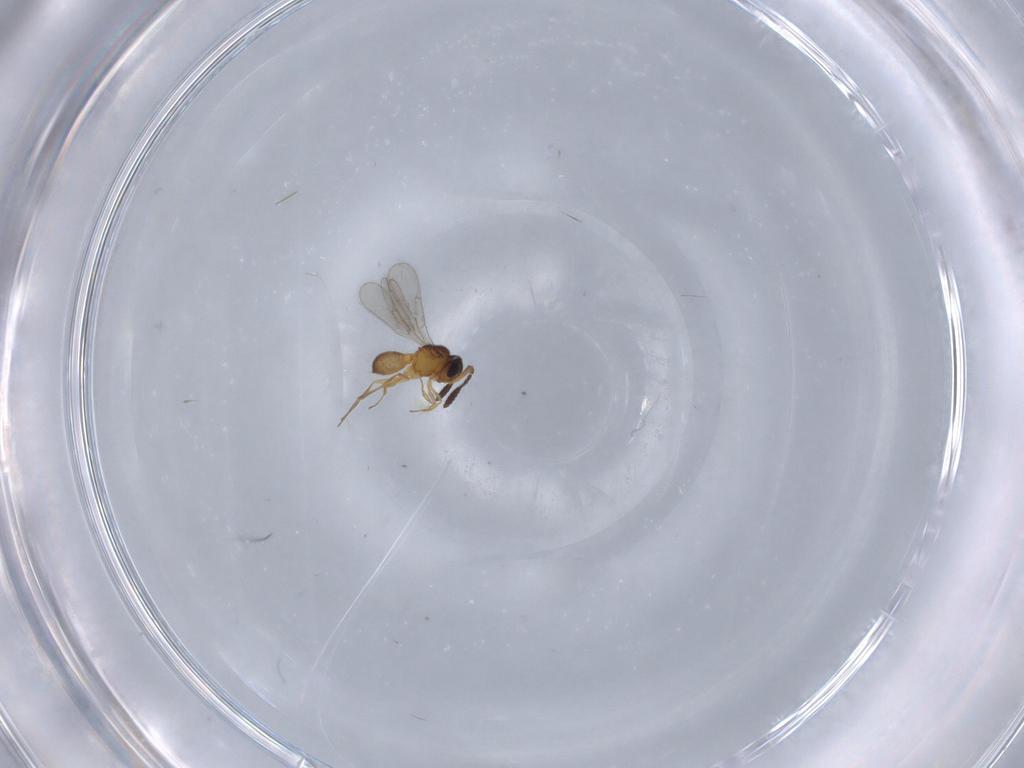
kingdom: Animalia
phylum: Arthropoda
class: Insecta
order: Hymenoptera
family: Scelionidae
